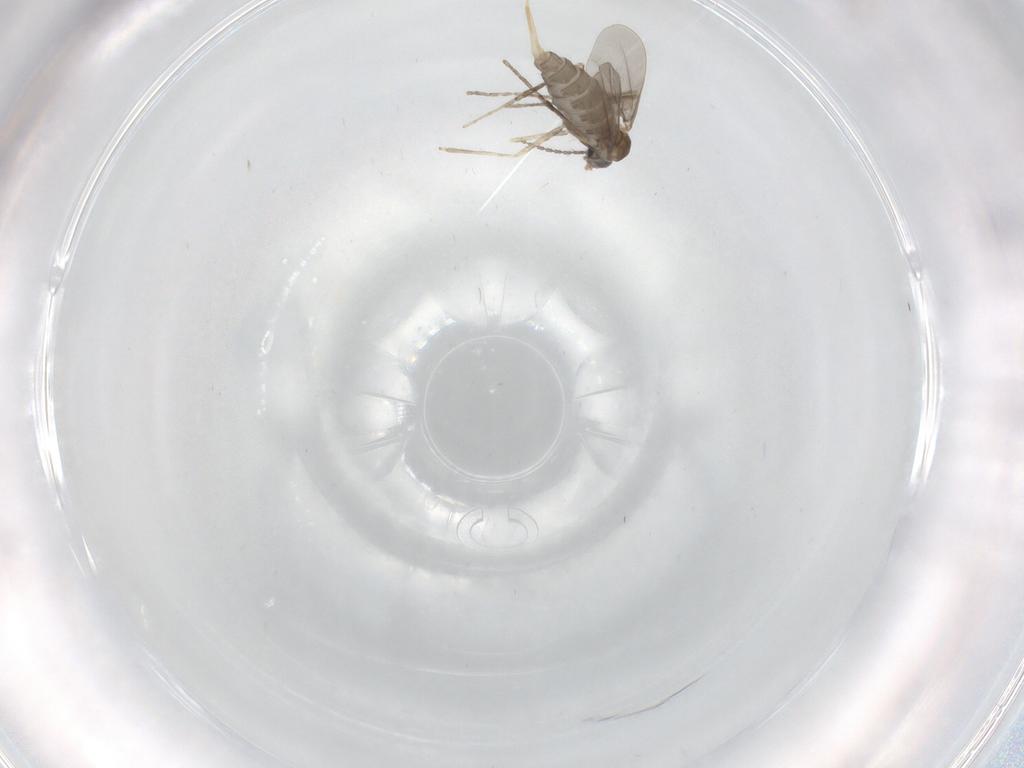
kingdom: Animalia
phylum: Arthropoda
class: Insecta
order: Diptera
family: Cecidomyiidae
